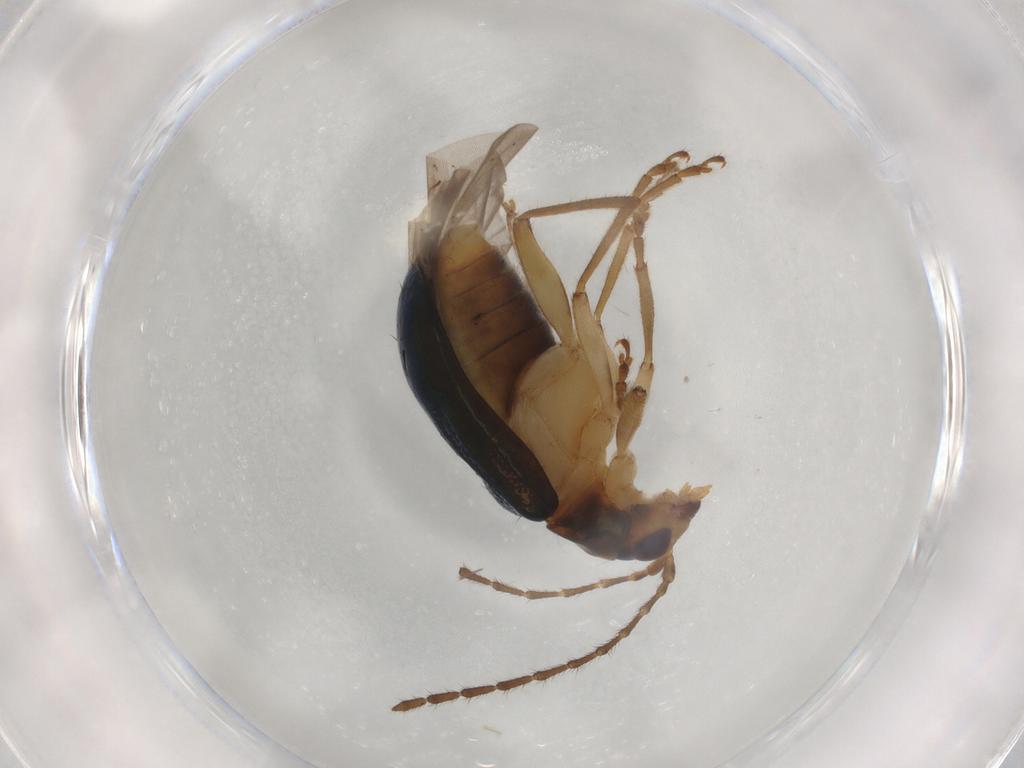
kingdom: Animalia
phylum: Arthropoda
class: Insecta
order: Coleoptera
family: Chrysomelidae
